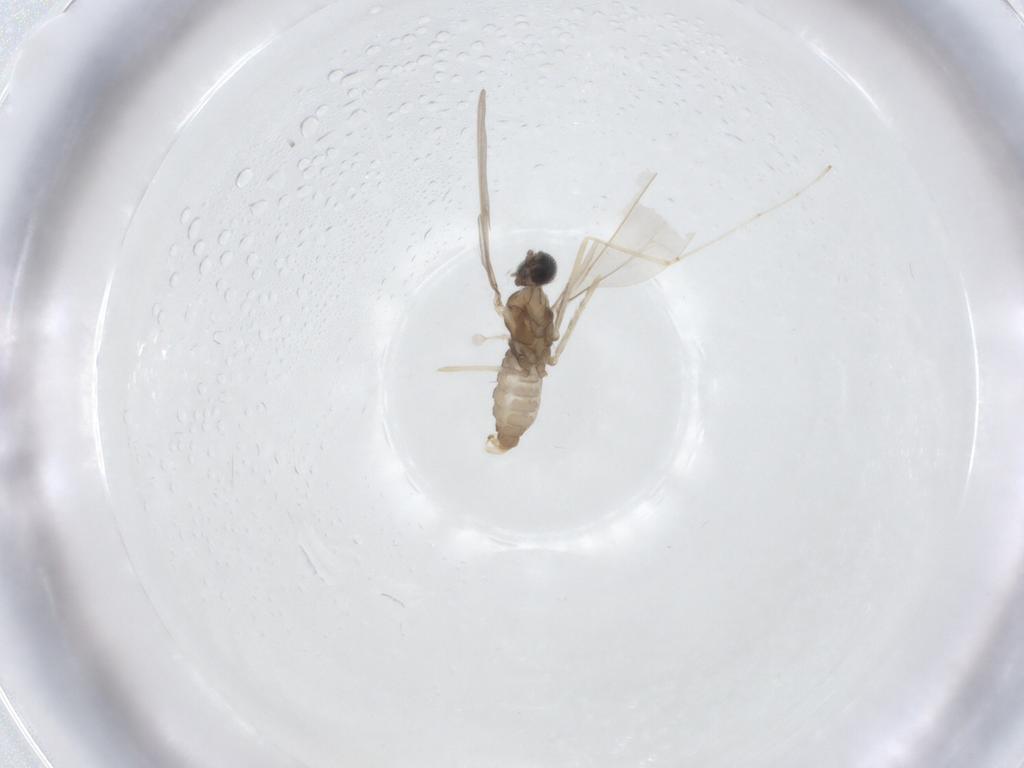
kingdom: Animalia
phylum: Arthropoda
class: Insecta
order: Diptera
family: Cecidomyiidae
